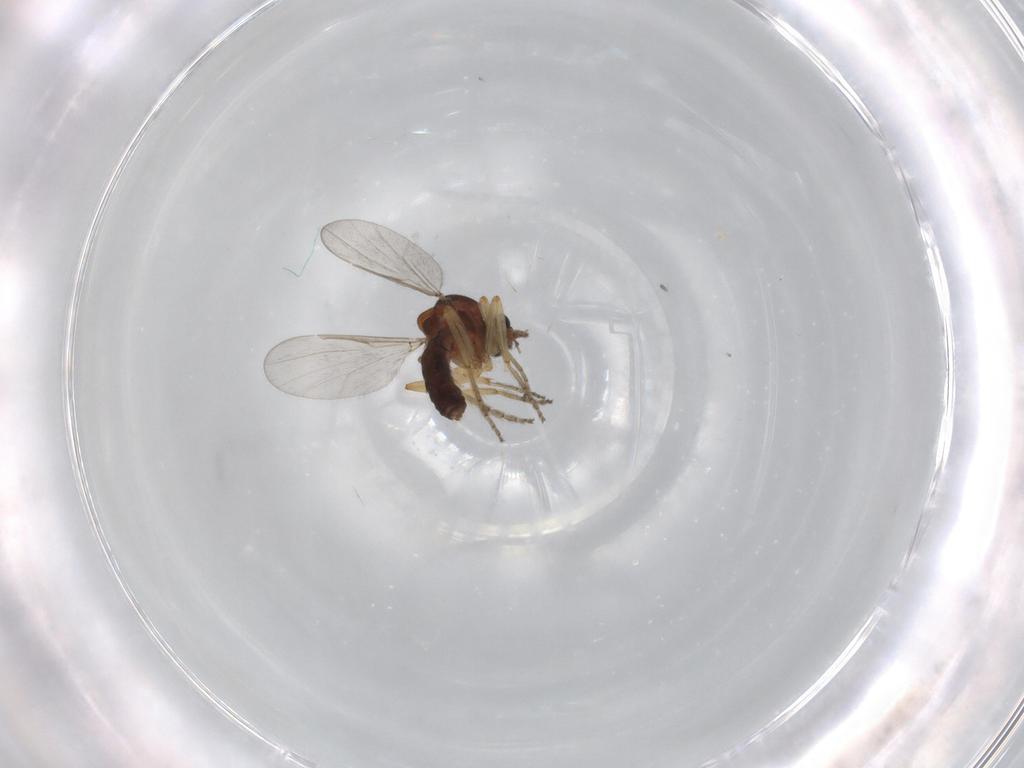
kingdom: Animalia
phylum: Arthropoda
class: Insecta
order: Diptera
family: Ceratopogonidae
